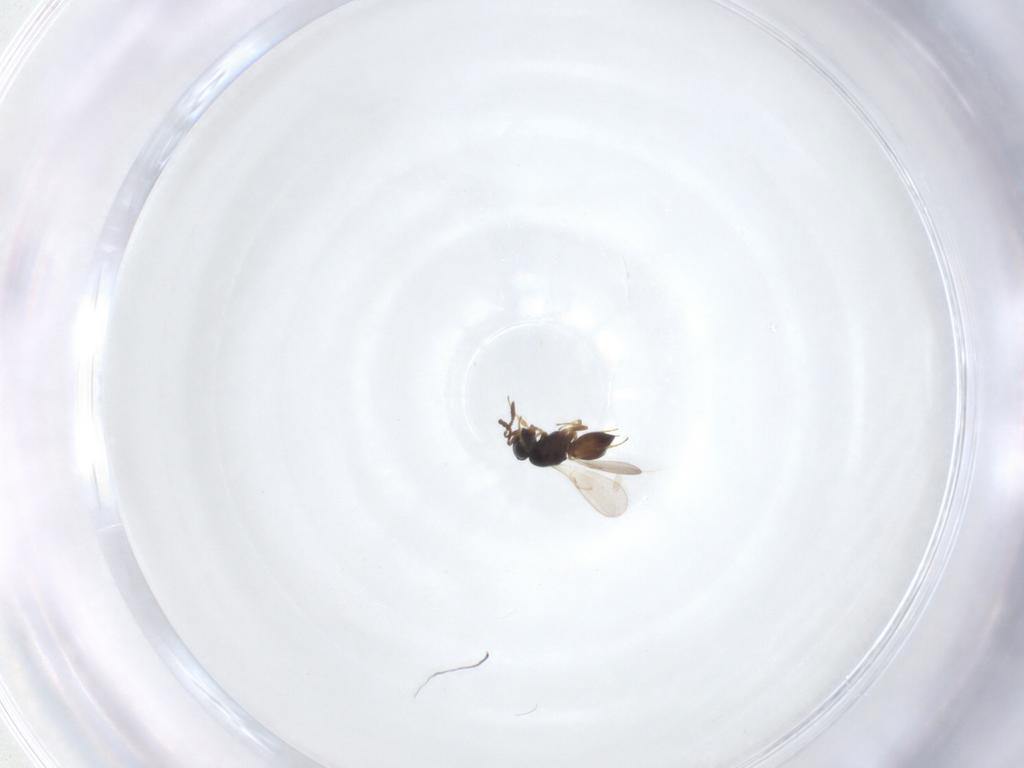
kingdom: Animalia
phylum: Arthropoda
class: Insecta
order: Hymenoptera
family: Scelionidae
